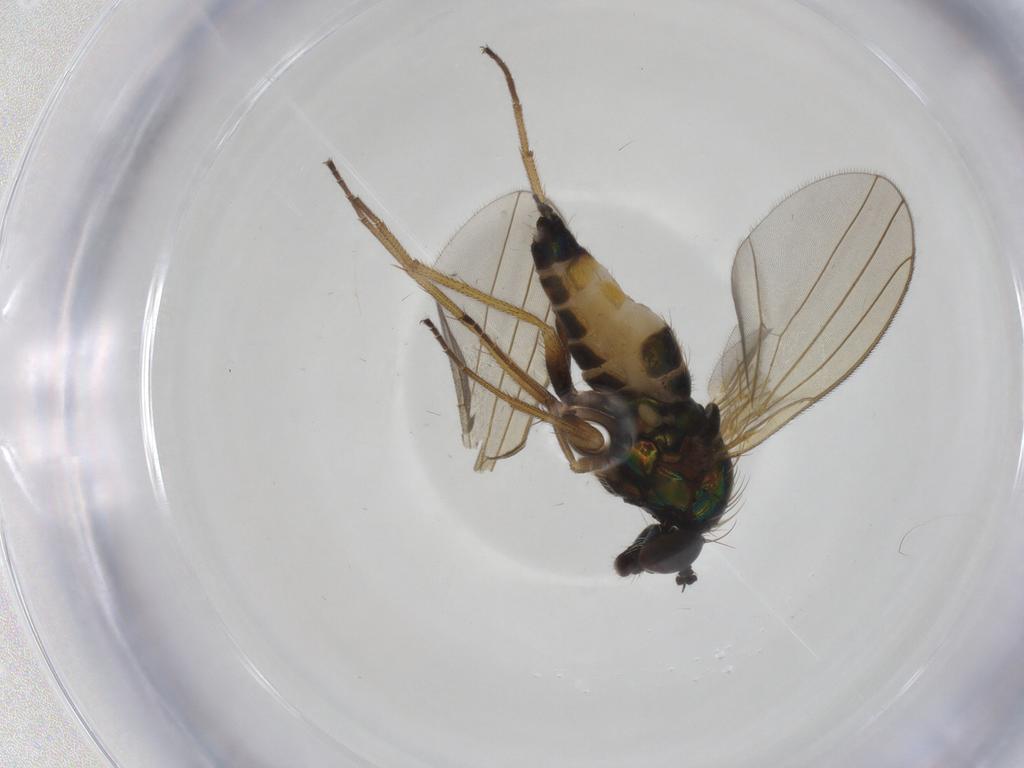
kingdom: Animalia
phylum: Arthropoda
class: Insecta
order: Diptera
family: Dolichopodidae
